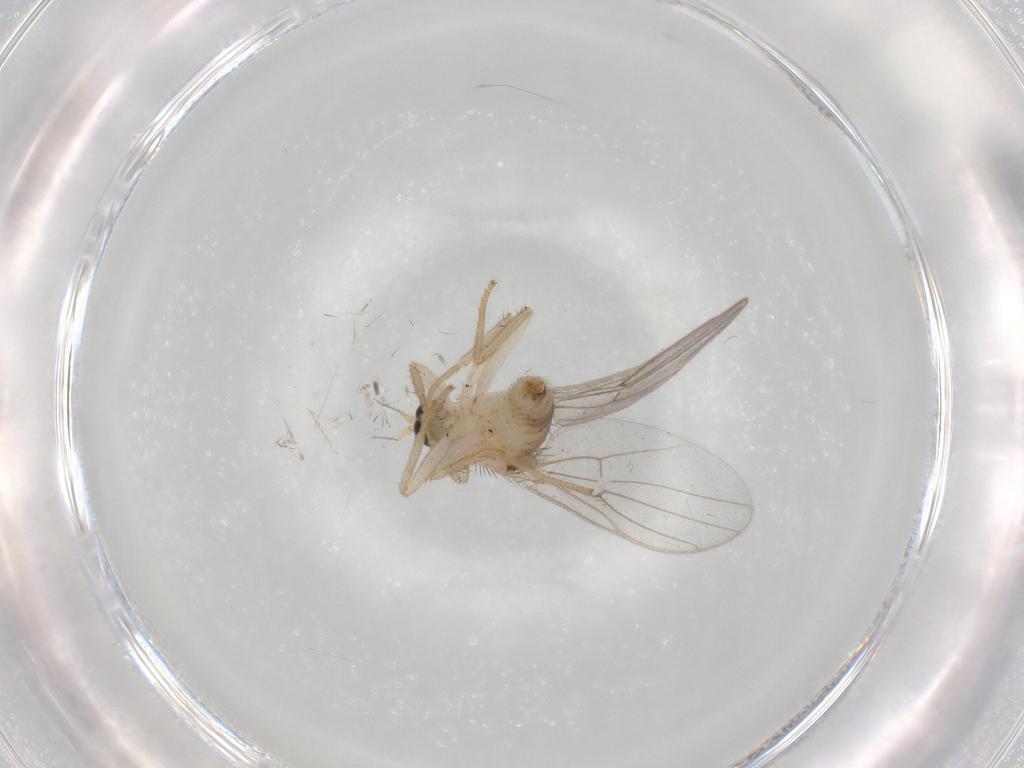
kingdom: Animalia
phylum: Arthropoda
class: Insecta
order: Diptera
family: Hybotidae
